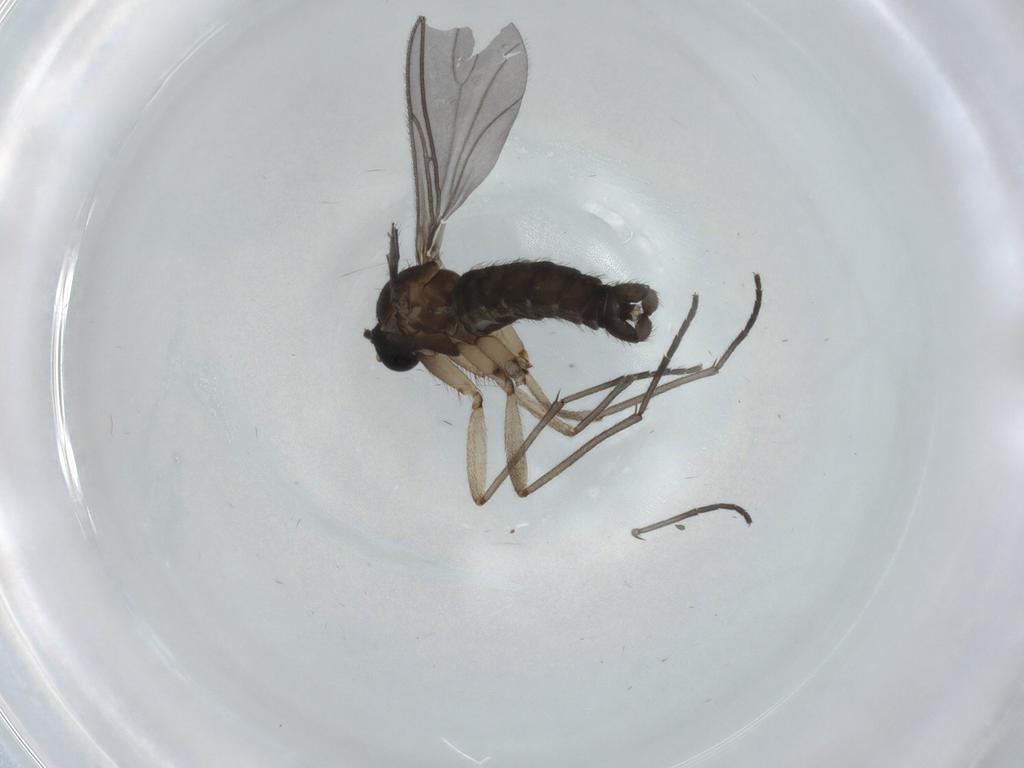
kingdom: Animalia
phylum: Arthropoda
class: Insecta
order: Diptera
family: Sciaridae
